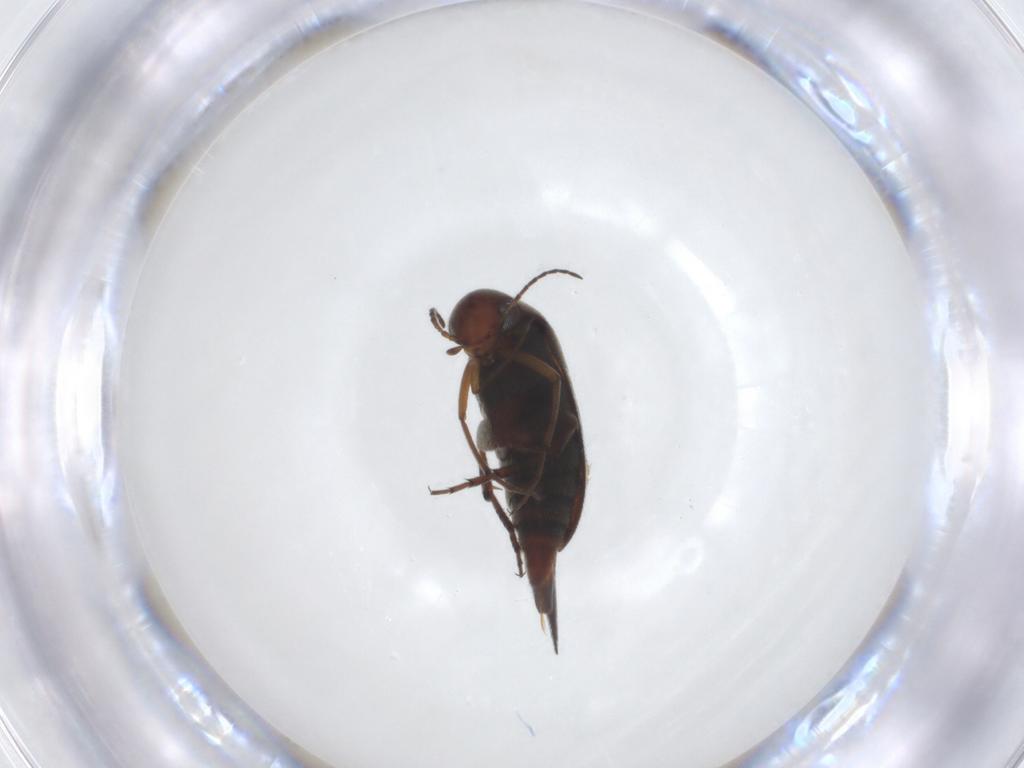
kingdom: Animalia
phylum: Arthropoda
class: Insecta
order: Coleoptera
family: Mordellidae
